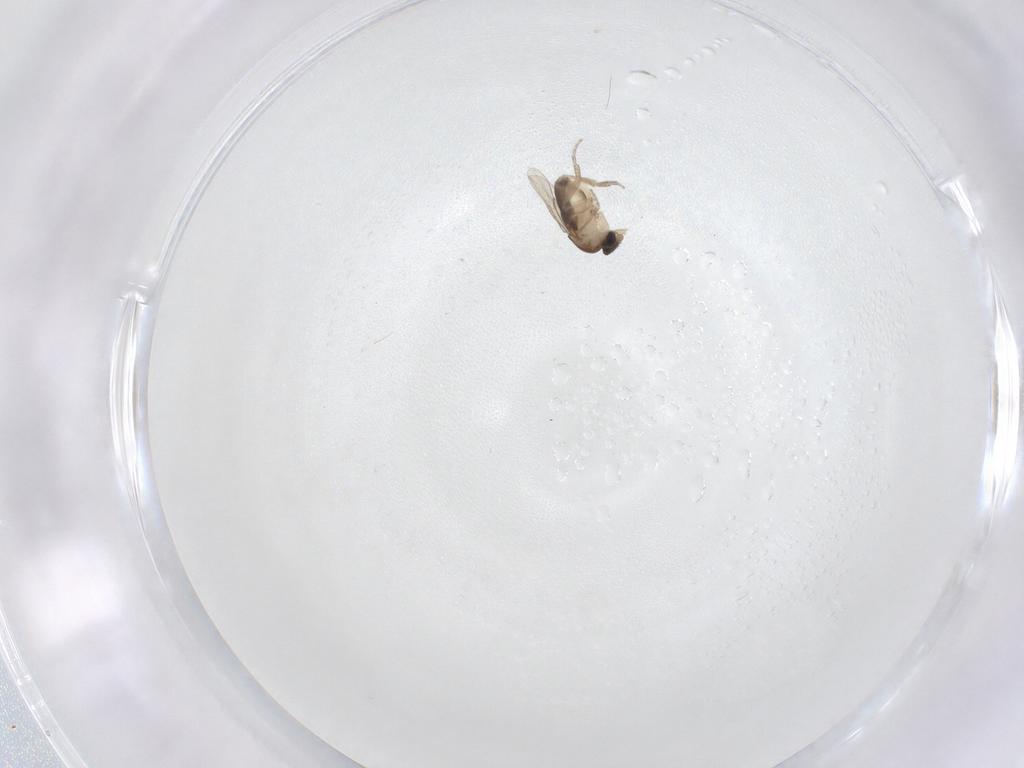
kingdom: Animalia
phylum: Arthropoda
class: Insecta
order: Diptera
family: Phoridae
